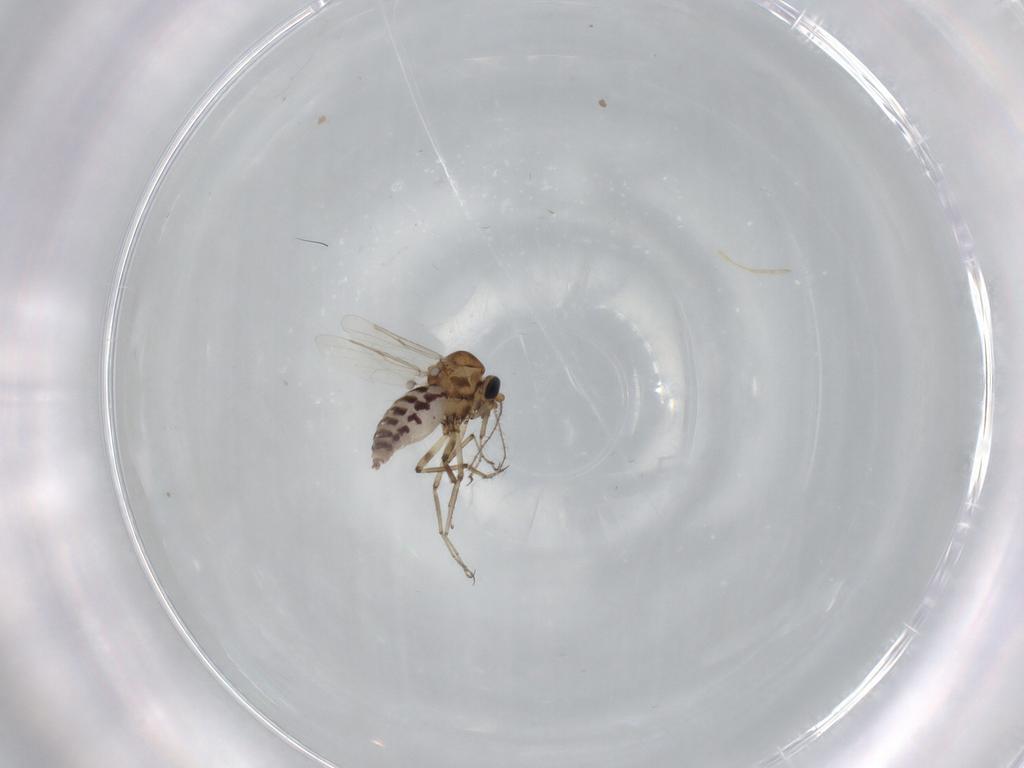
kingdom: Animalia
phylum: Arthropoda
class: Insecta
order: Diptera
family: Ceratopogonidae
